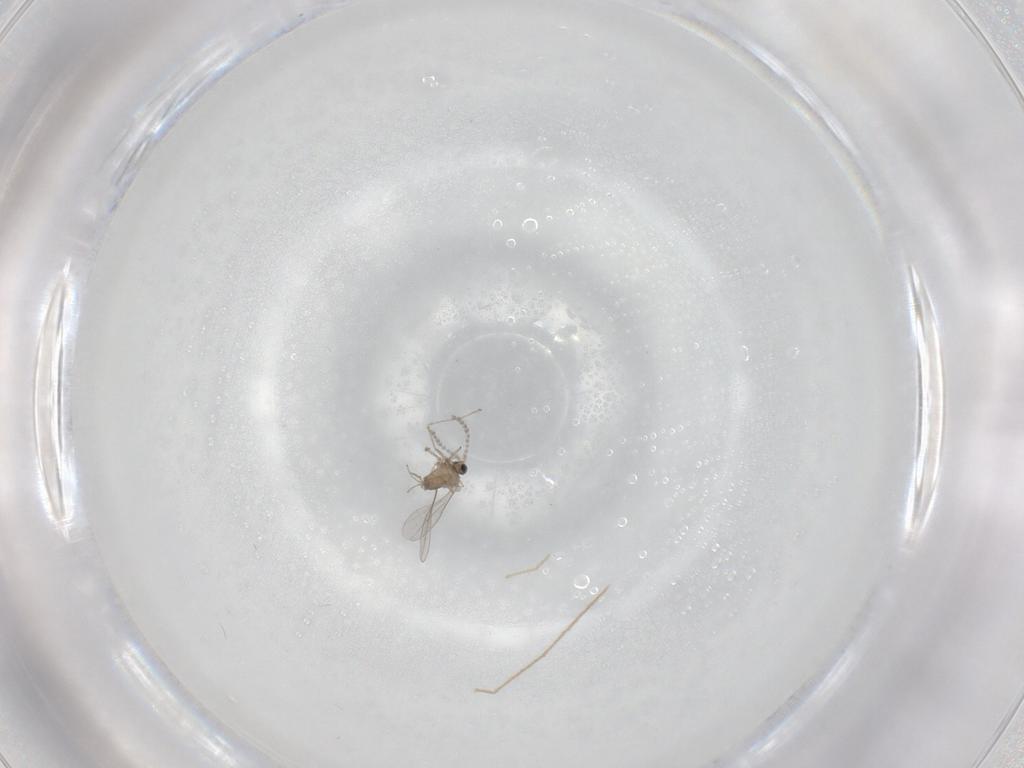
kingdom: Animalia
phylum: Arthropoda
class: Insecta
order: Diptera
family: Cecidomyiidae
